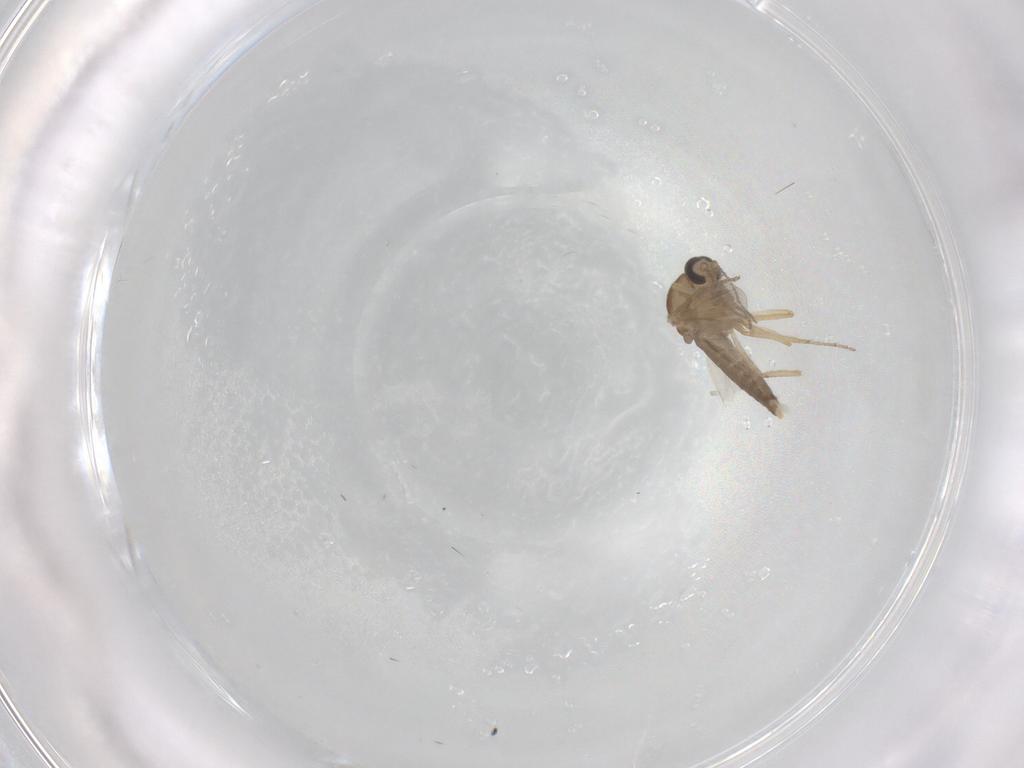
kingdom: Animalia
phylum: Arthropoda
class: Insecta
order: Diptera
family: Ceratopogonidae
